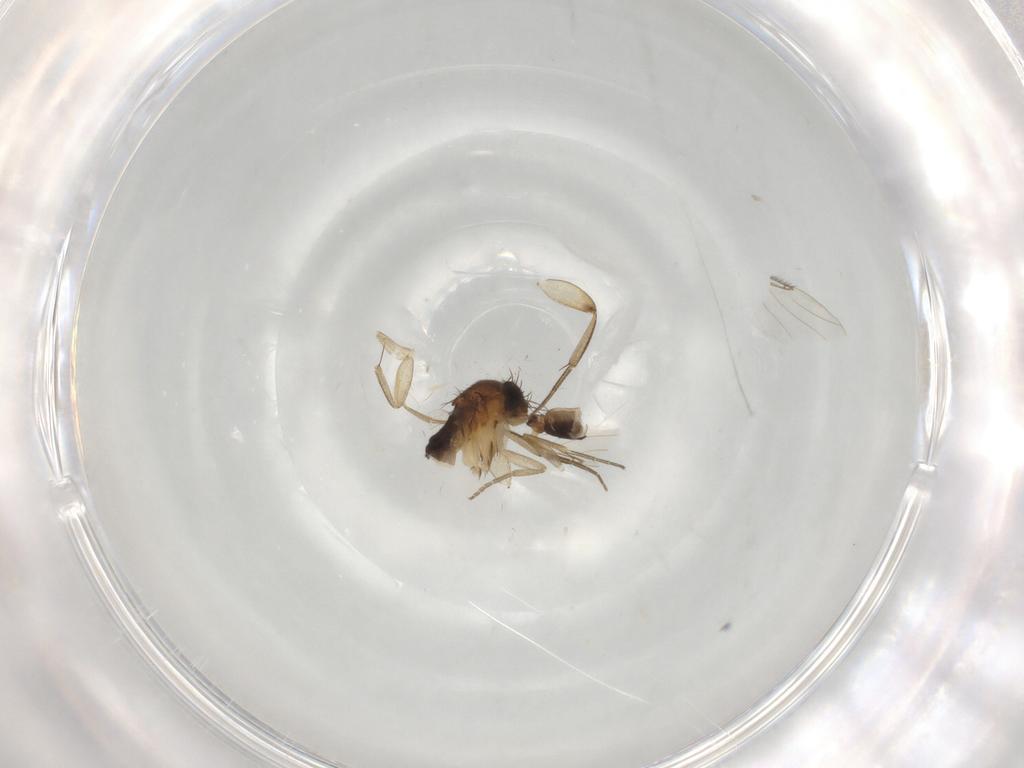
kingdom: Animalia
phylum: Arthropoda
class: Insecta
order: Diptera
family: Phoridae
